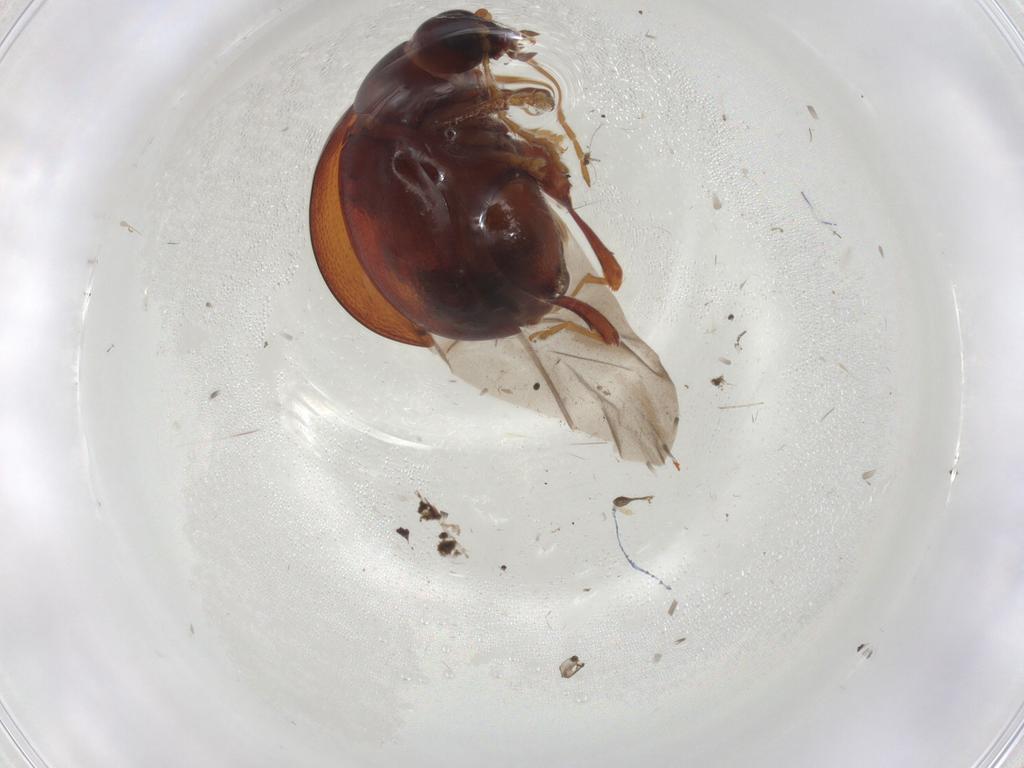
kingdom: Animalia
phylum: Arthropoda
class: Insecta
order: Coleoptera
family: Chrysomelidae
